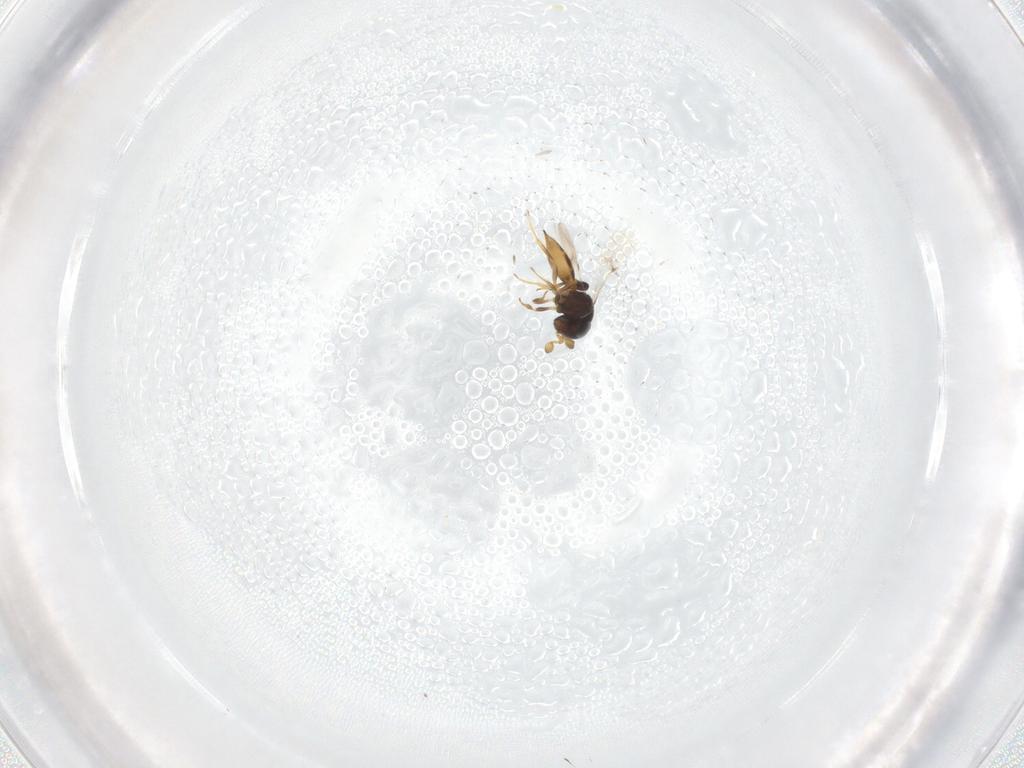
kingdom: Animalia
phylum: Arthropoda
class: Insecta
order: Hymenoptera
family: Scelionidae
